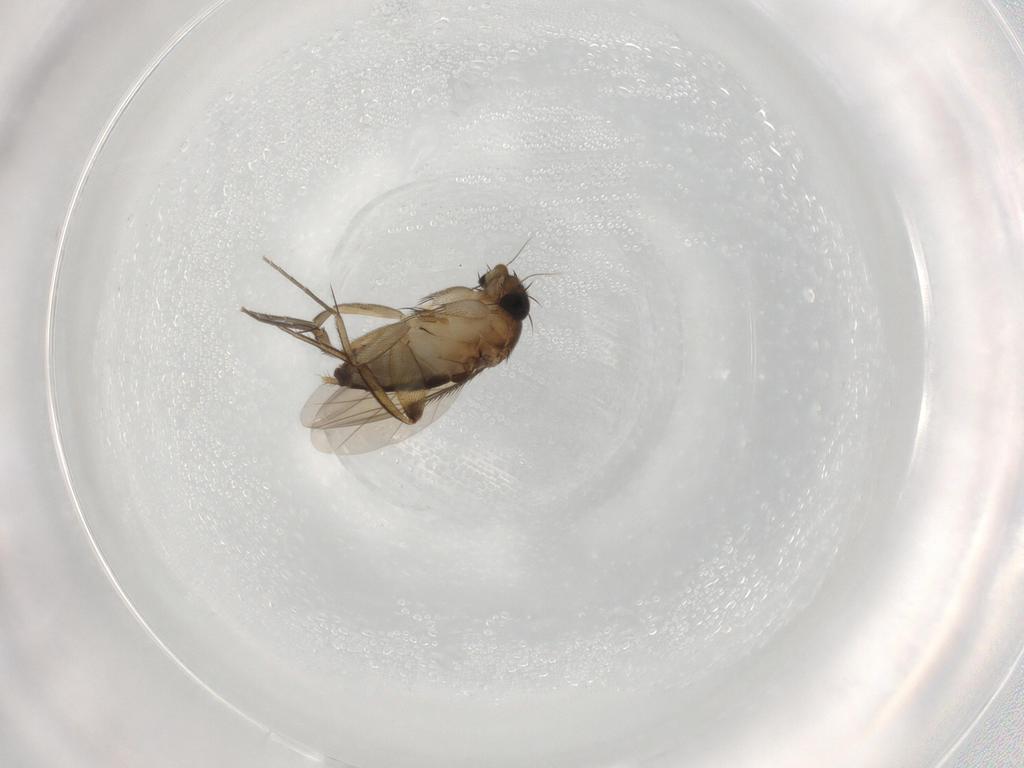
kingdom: Animalia
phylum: Arthropoda
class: Insecta
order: Diptera
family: Phoridae
